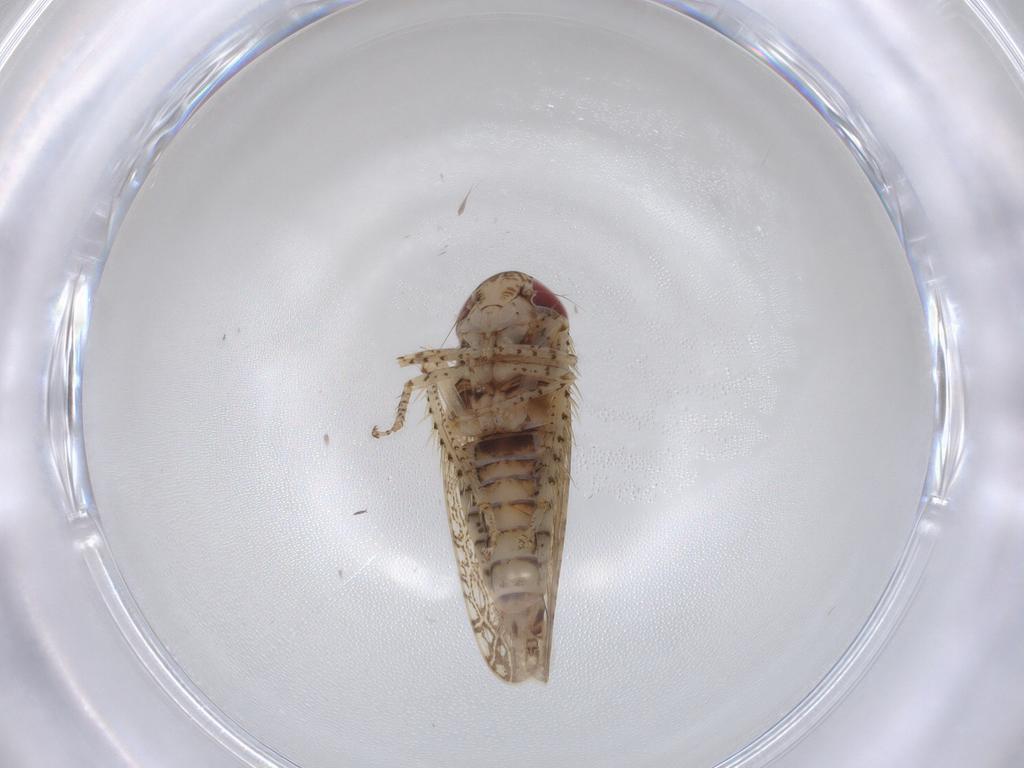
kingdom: Animalia
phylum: Arthropoda
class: Insecta
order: Hemiptera
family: Cicadellidae
